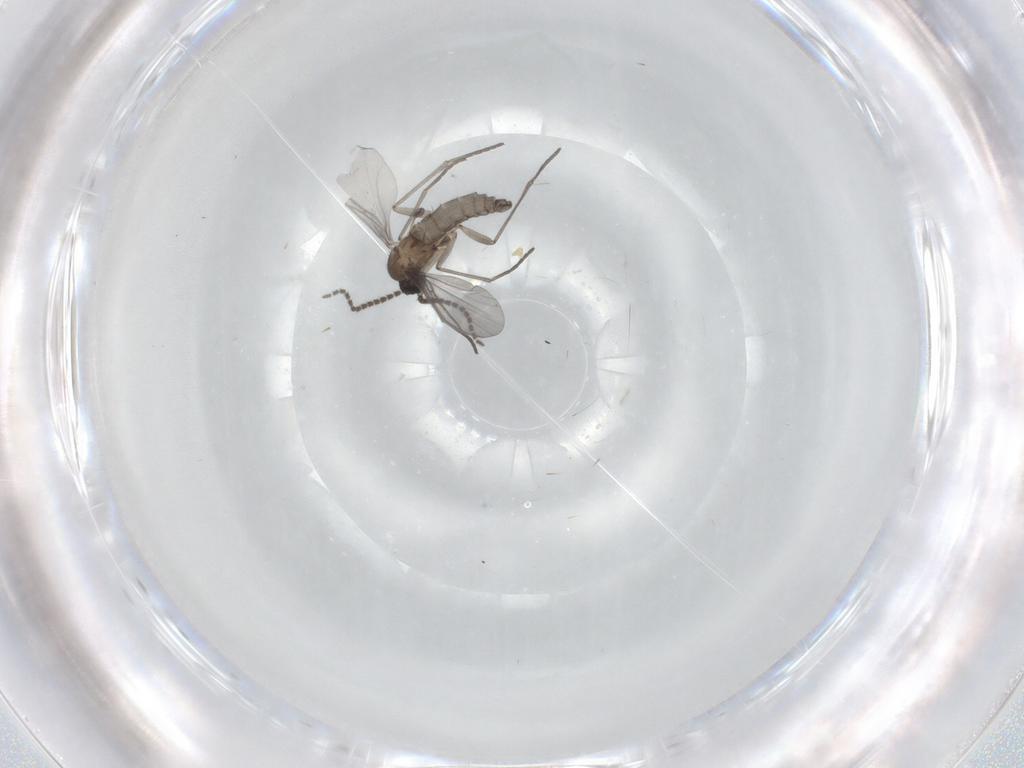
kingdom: Animalia
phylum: Arthropoda
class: Insecta
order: Diptera
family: Chironomidae
